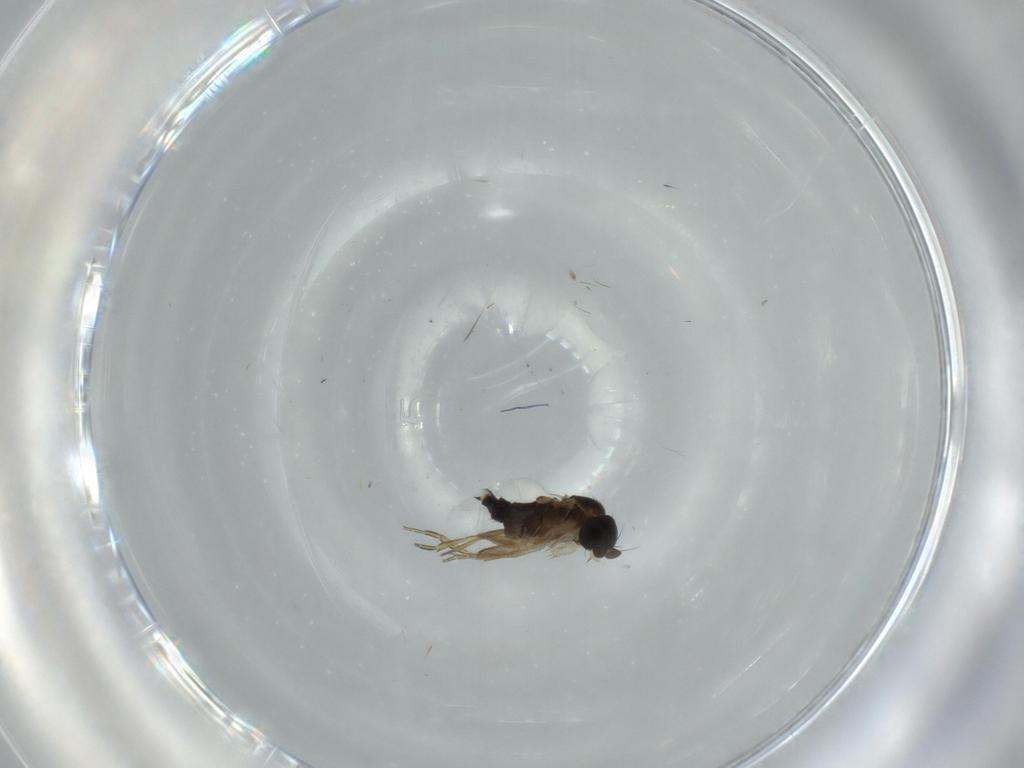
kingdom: Animalia
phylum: Arthropoda
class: Insecta
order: Diptera
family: Phoridae
